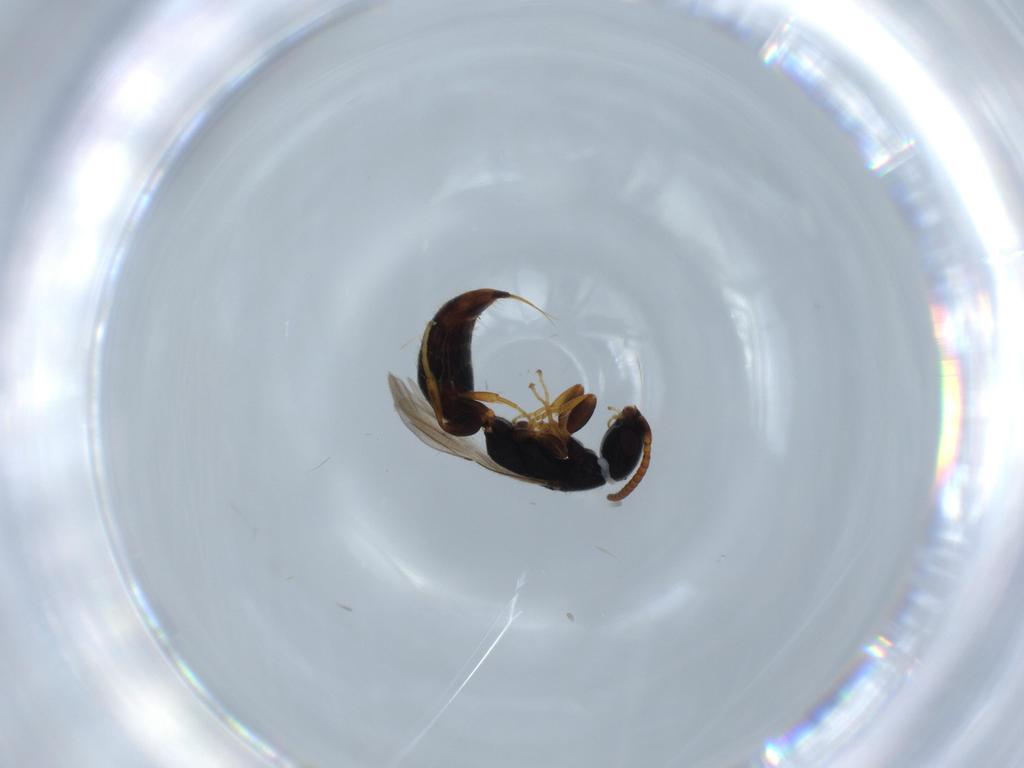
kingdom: Animalia
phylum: Arthropoda
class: Insecta
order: Hymenoptera
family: Bethylidae
